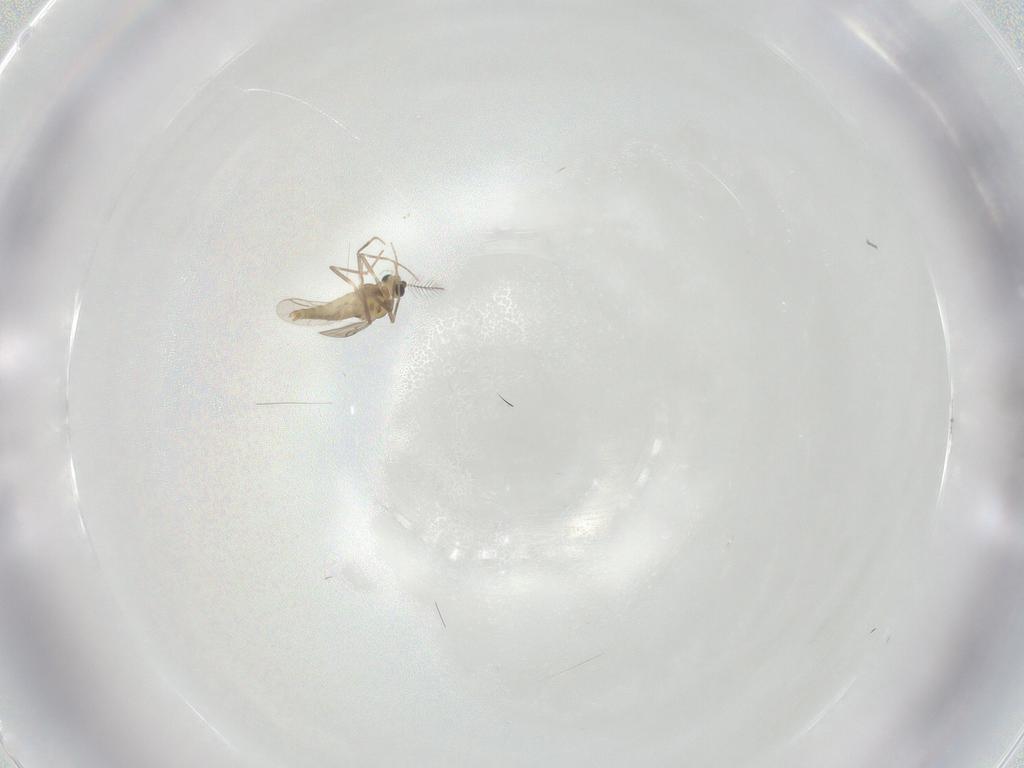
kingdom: Animalia
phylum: Arthropoda
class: Insecta
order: Diptera
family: Chironomidae
